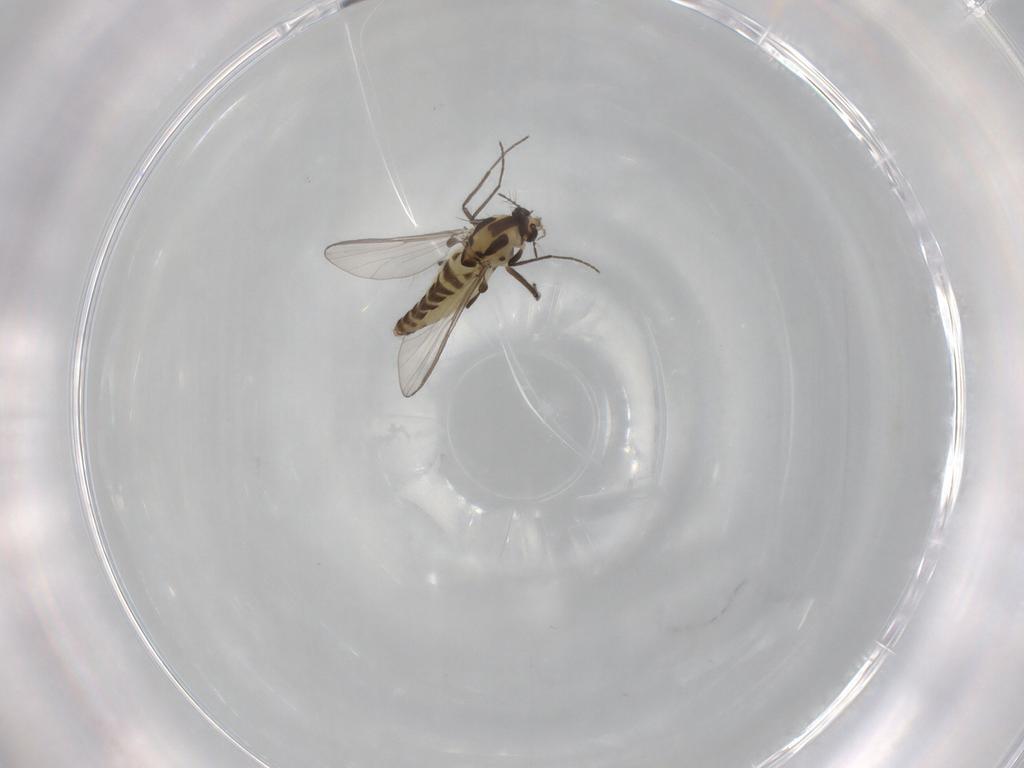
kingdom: Animalia
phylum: Arthropoda
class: Insecta
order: Diptera
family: Chironomidae
